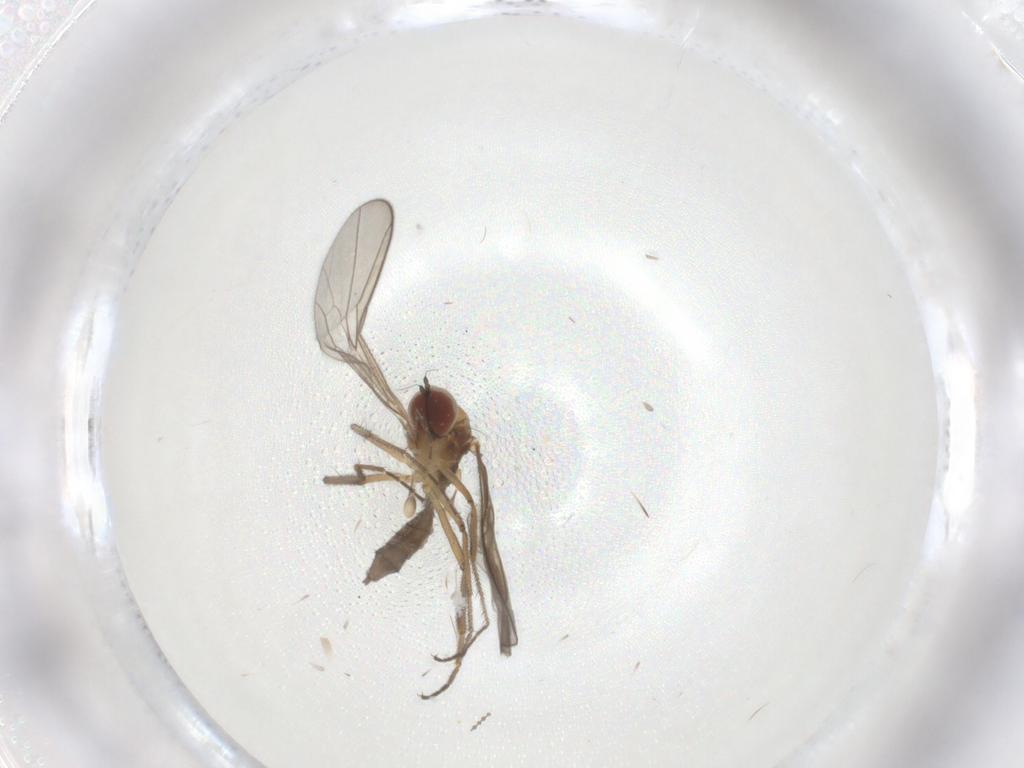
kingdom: Animalia
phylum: Arthropoda
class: Insecta
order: Diptera
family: Hybotidae
